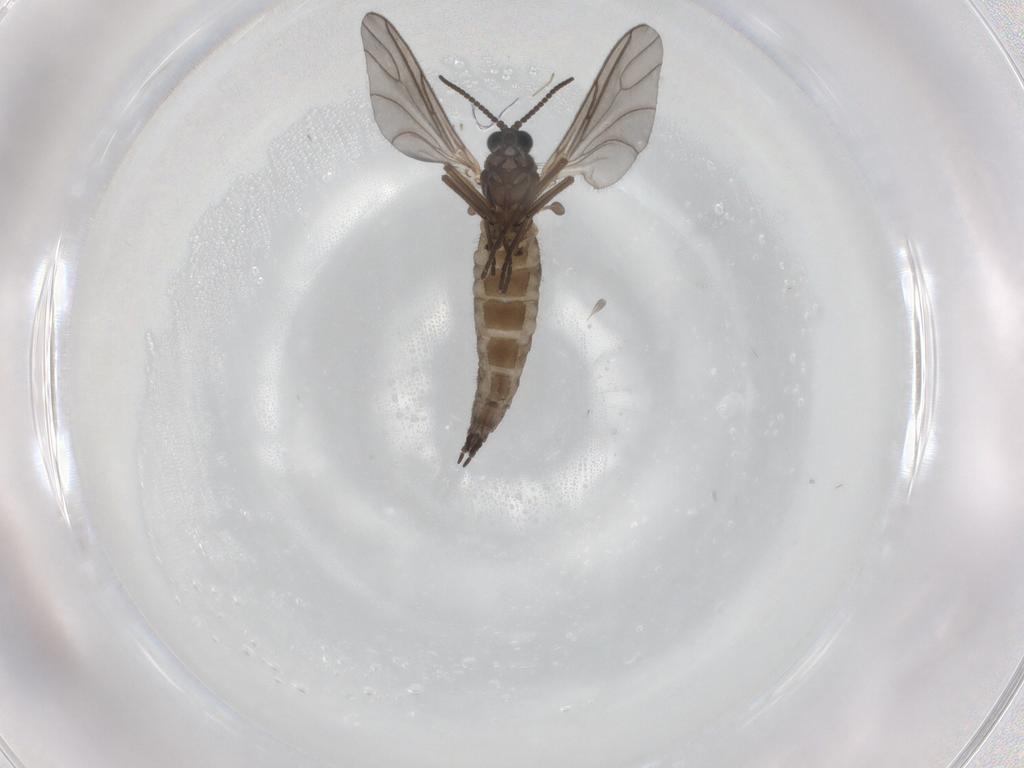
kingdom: Animalia
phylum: Arthropoda
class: Insecta
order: Diptera
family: Sciaridae
